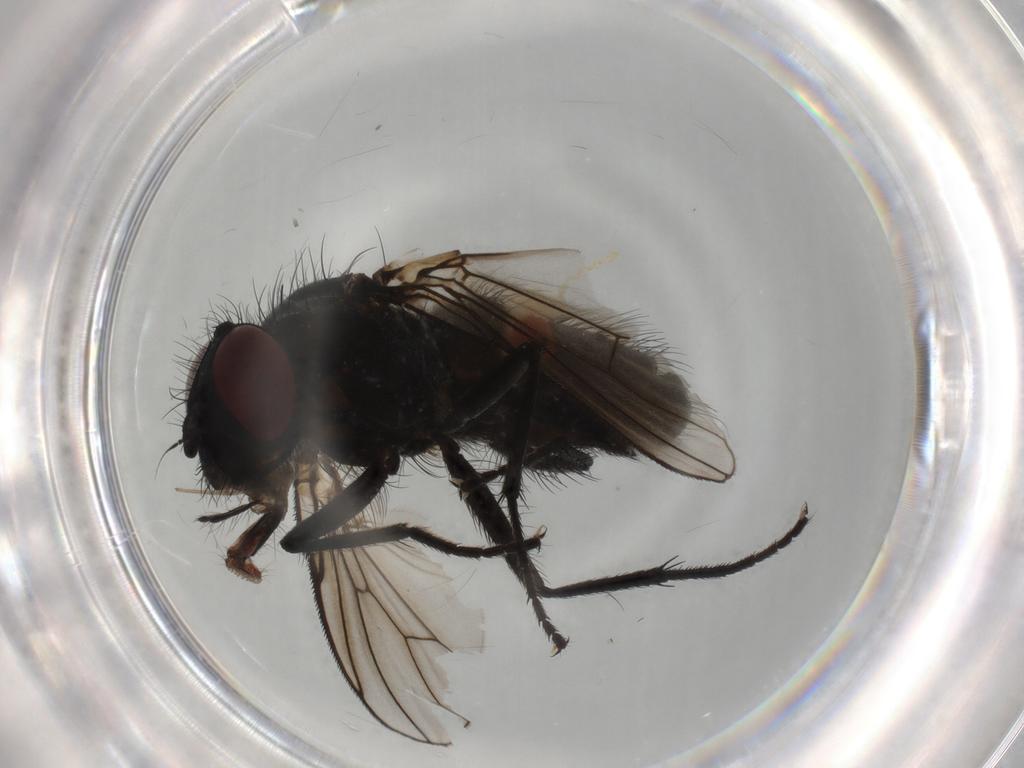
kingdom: Animalia
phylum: Arthropoda
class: Insecta
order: Diptera
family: Muscidae
